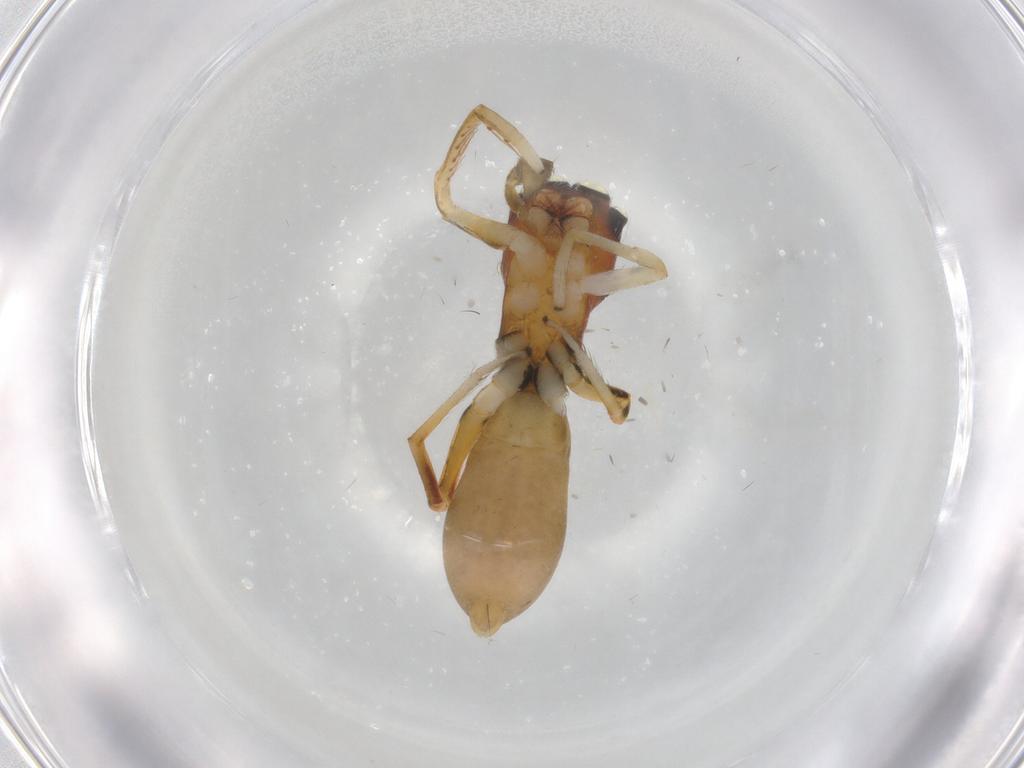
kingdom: Animalia
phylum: Arthropoda
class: Arachnida
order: Araneae
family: Salticidae
